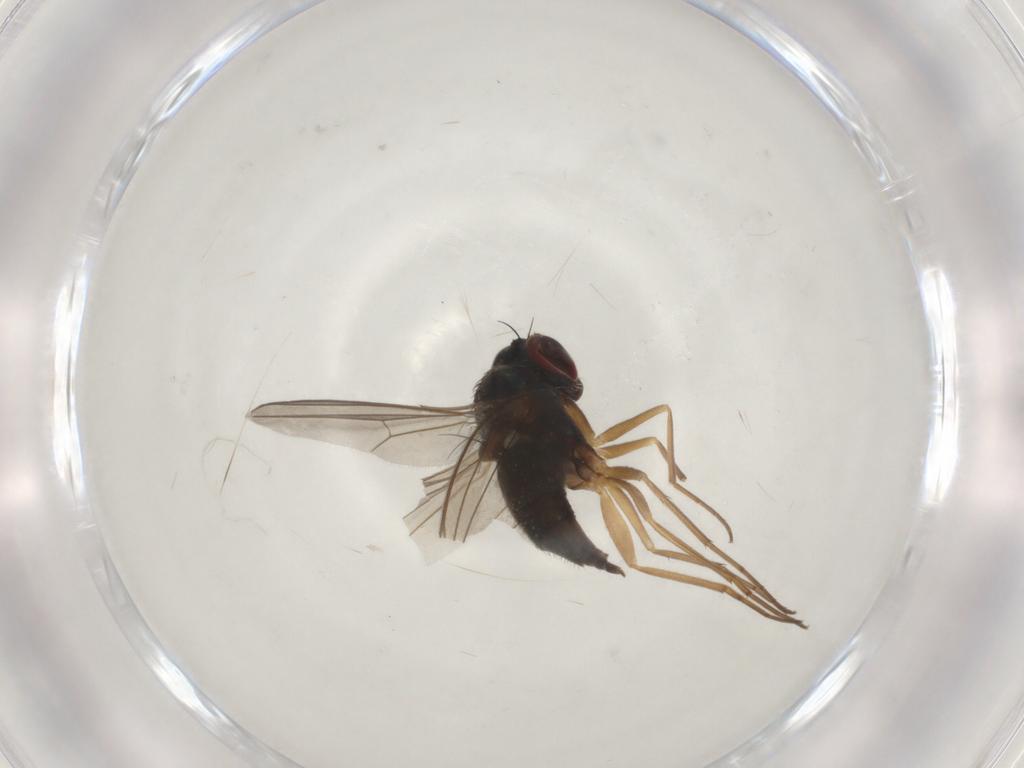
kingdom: Animalia
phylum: Arthropoda
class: Insecta
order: Diptera
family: Dolichopodidae
